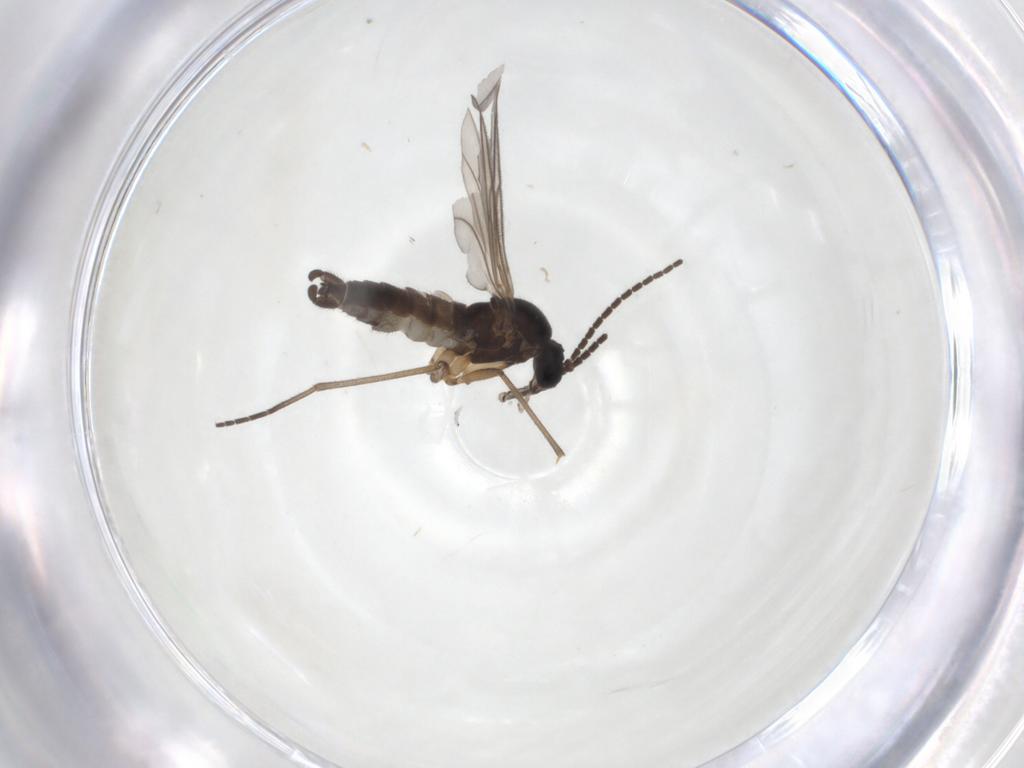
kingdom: Animalia
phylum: Arthropoda
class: Insecta
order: Diptera
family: Sciaridae
